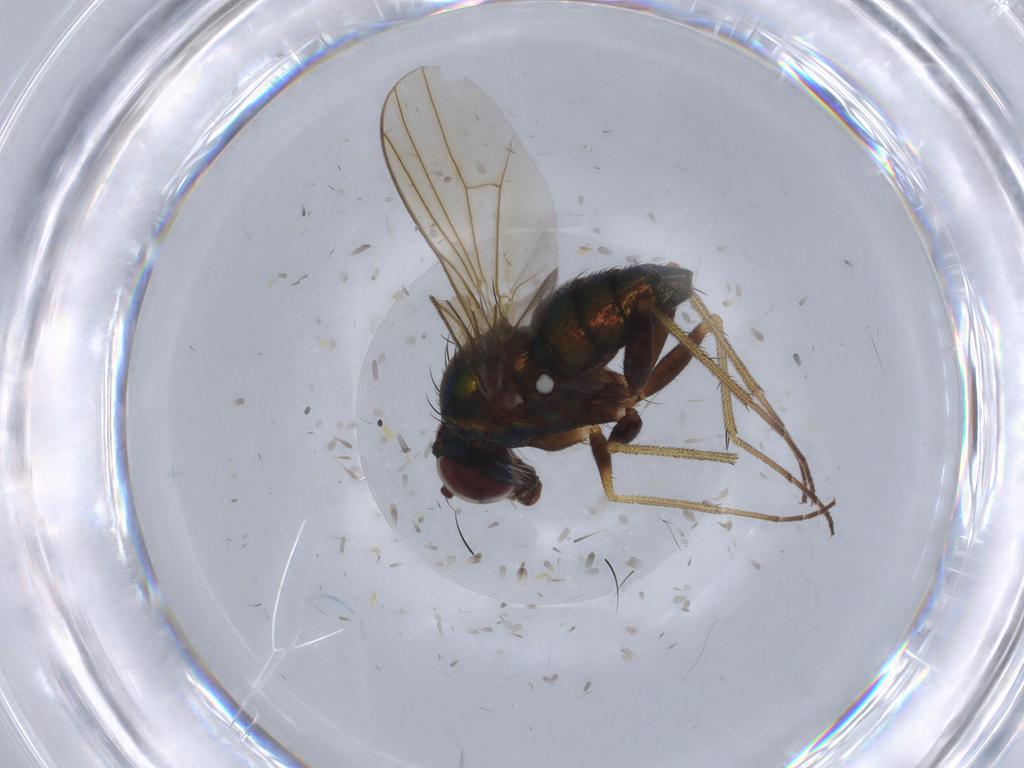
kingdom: Animalia
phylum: Arthropoda
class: Insecta
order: Diptera
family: Dolichopodidae
